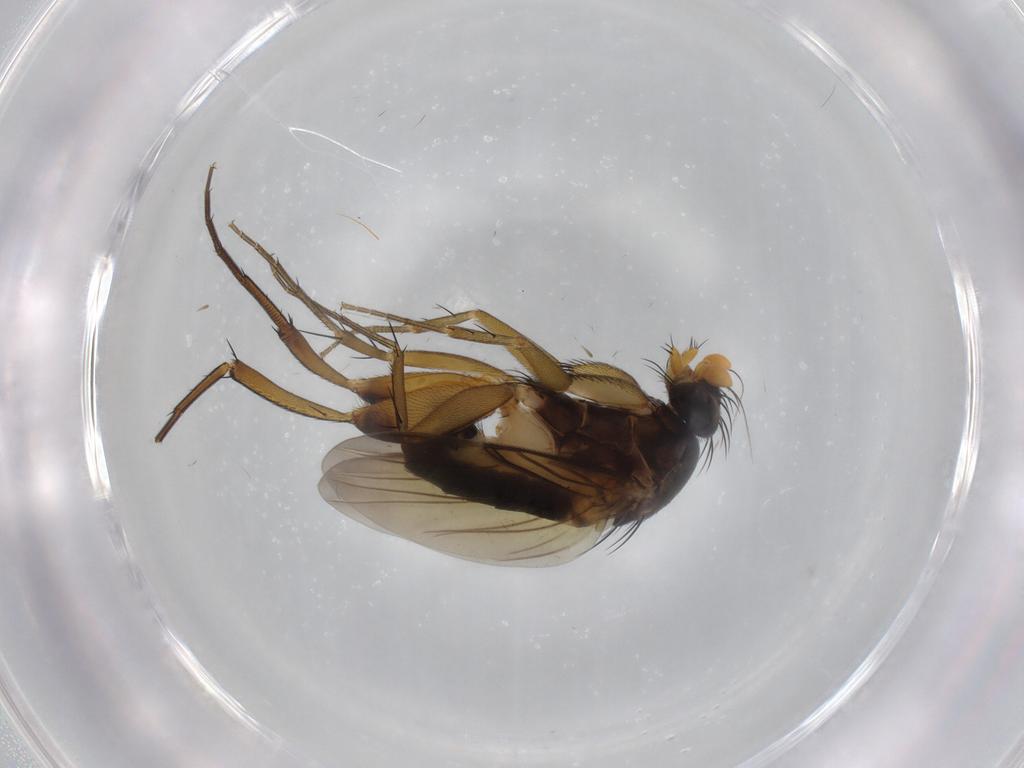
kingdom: Animalia
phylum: Arthropoda
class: Insecta
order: Diptera
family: Phoridae
